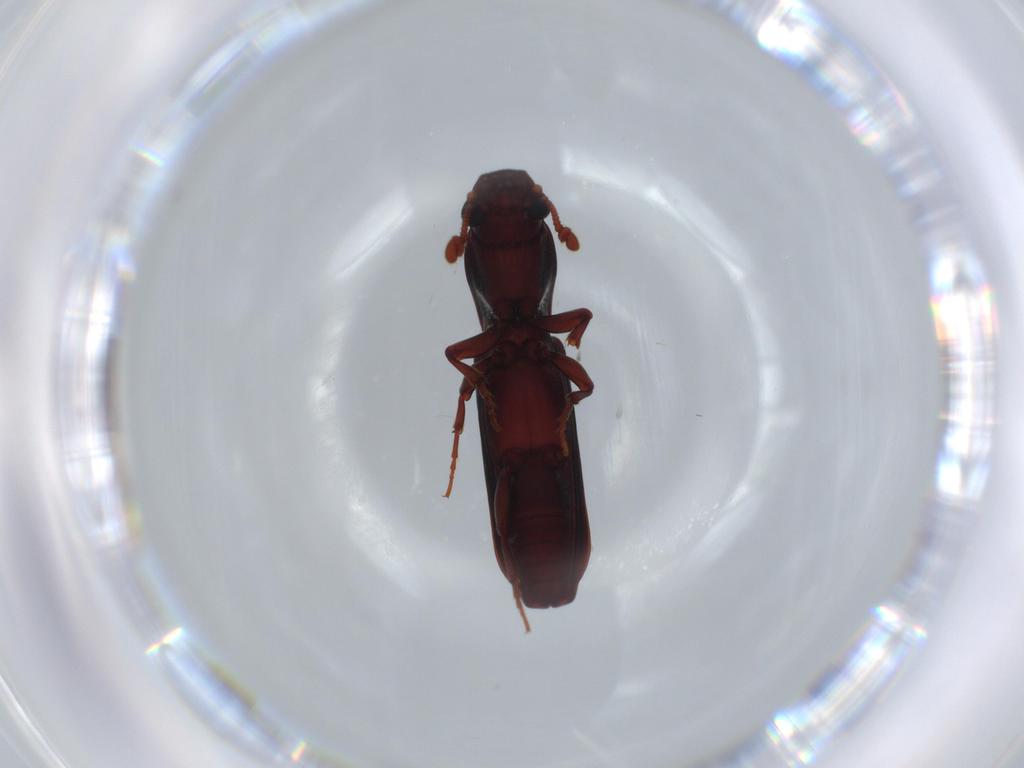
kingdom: Animalia
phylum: Arthropoda
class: Insecta
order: Coleoptera
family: Bothrideridae
